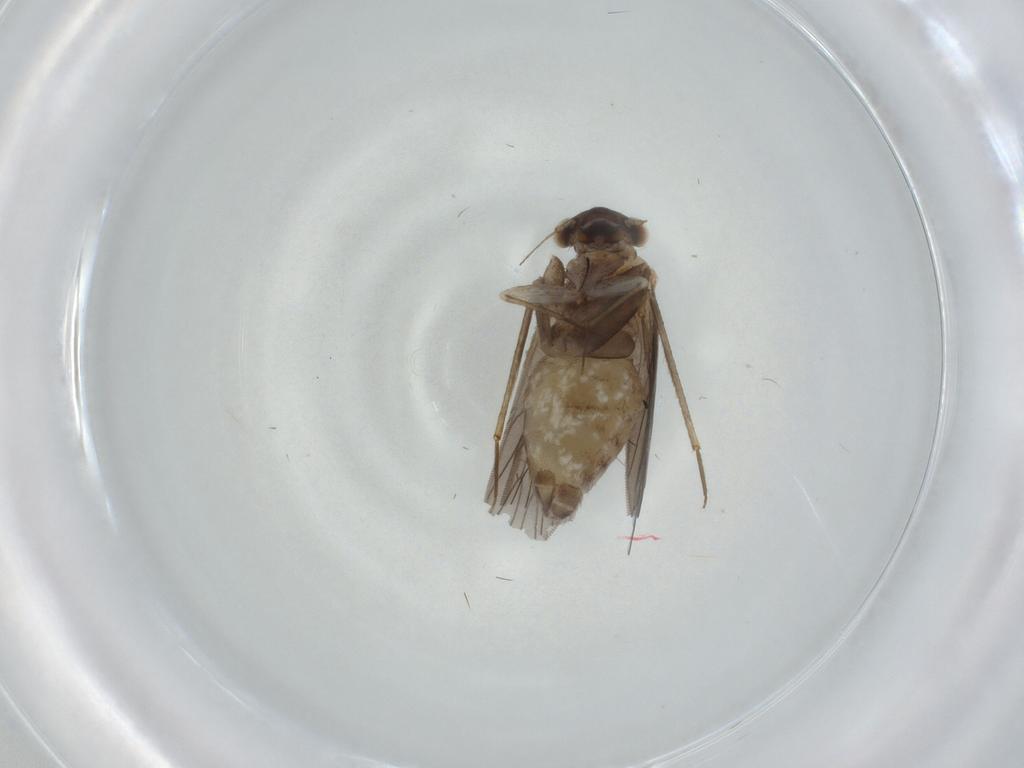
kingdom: Animalia
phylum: Arthropoda
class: Insecta
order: Psocodea
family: Lepidopsocidae
